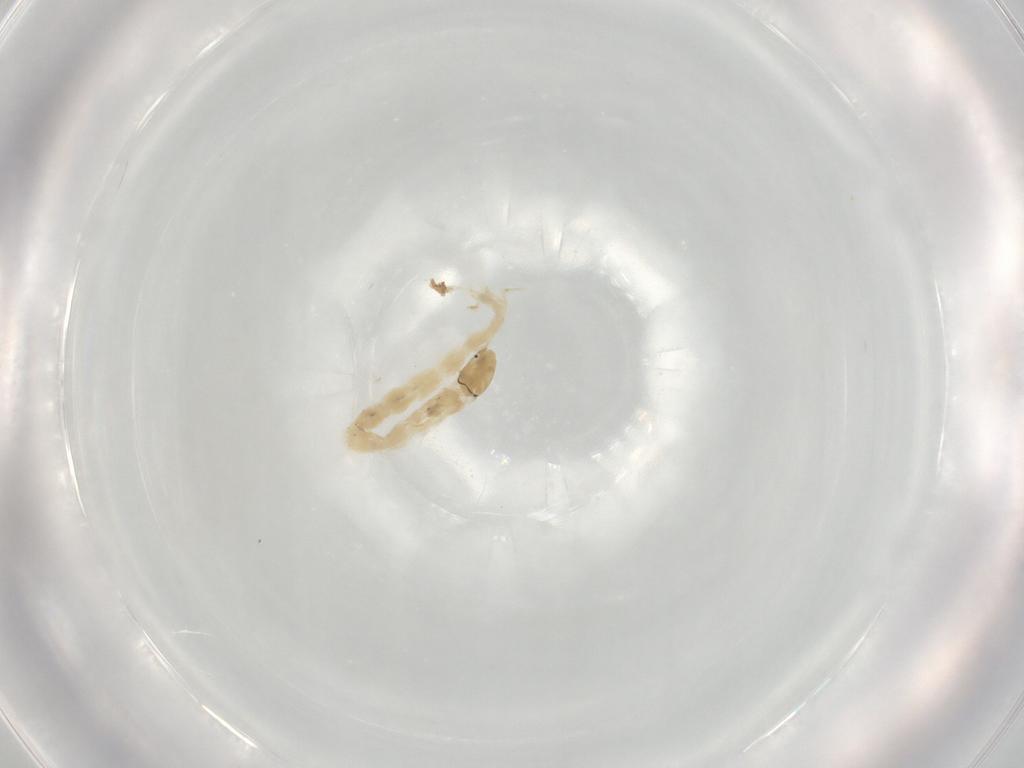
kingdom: Animalia
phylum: Arthropoda
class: Insecta
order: Diptera
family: Chironomidae
